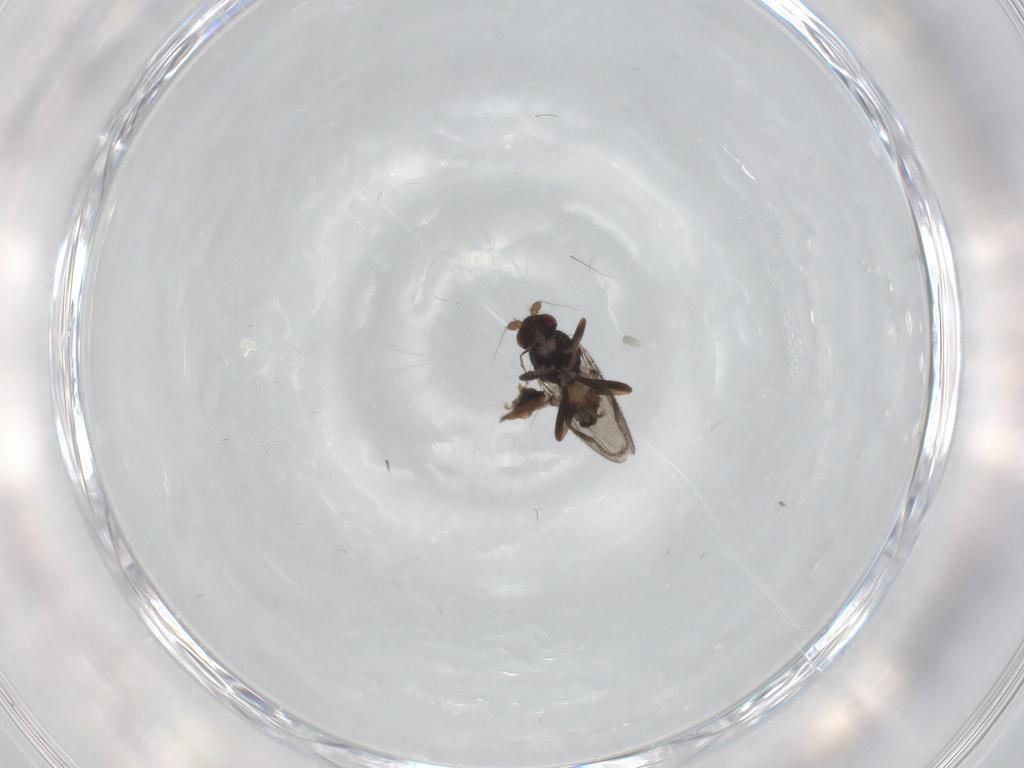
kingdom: Animalia
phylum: Arthropoda
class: Insecta
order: Diptera
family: Sphaeroceridae
